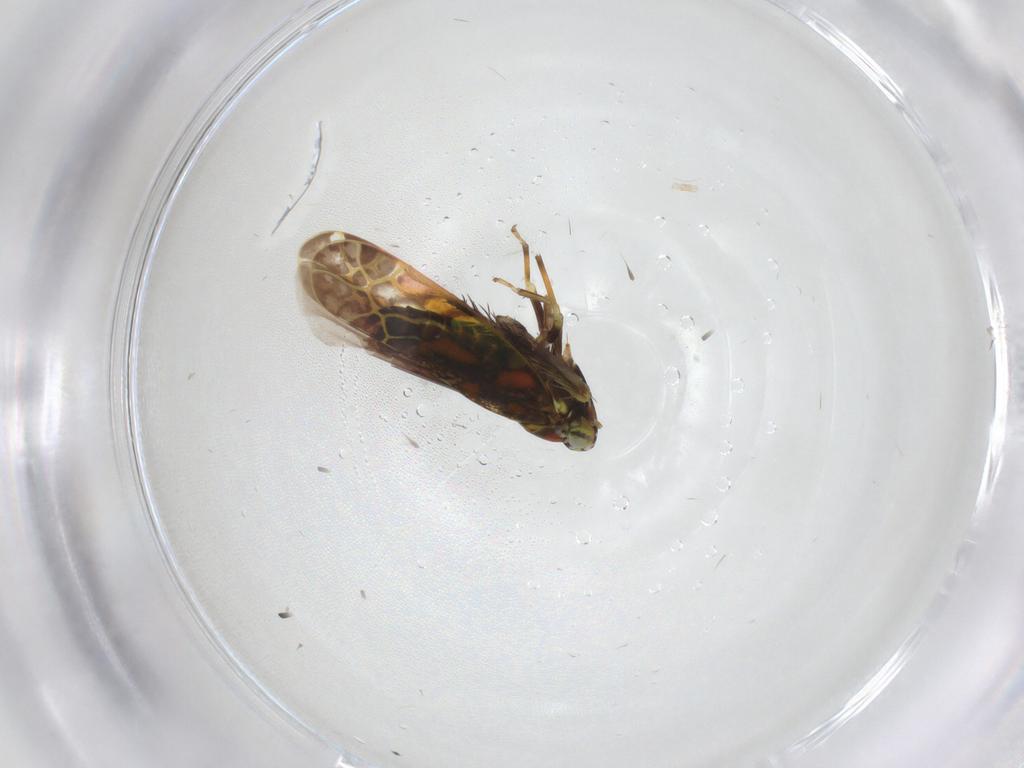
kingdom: Animalia
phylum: Arthropoda
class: Insecta
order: Hemiptera
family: Cicadellidae
